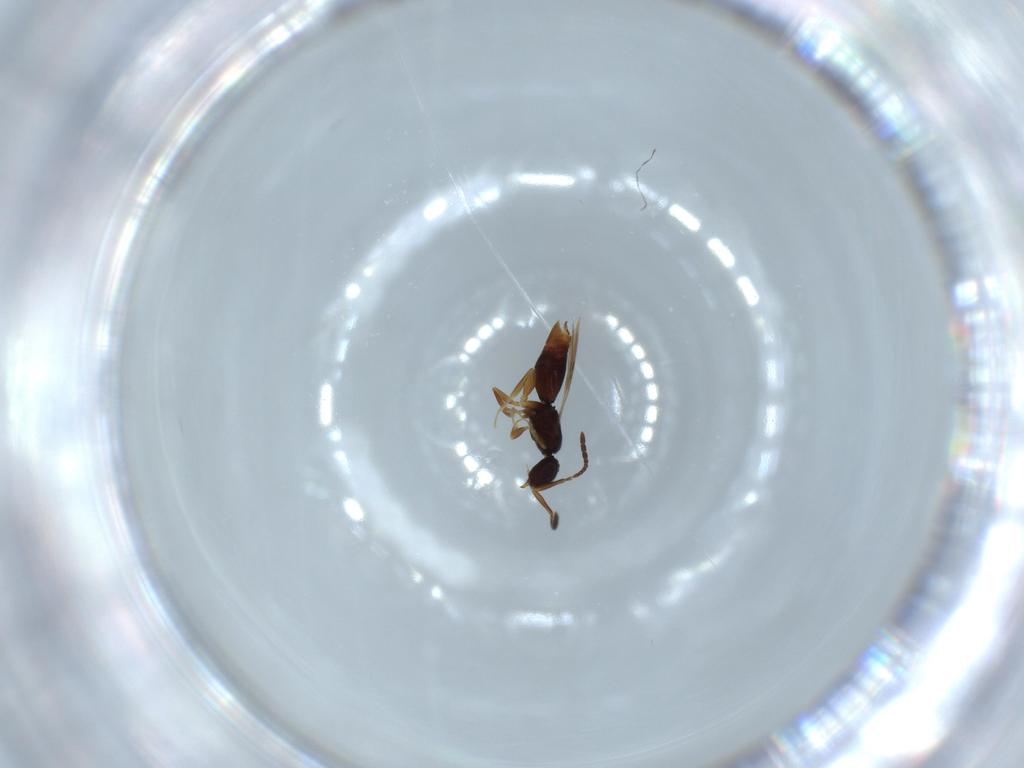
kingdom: Animalia
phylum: Arthropoda
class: Insecta
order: Hymenoptera
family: Ceraphronidae
